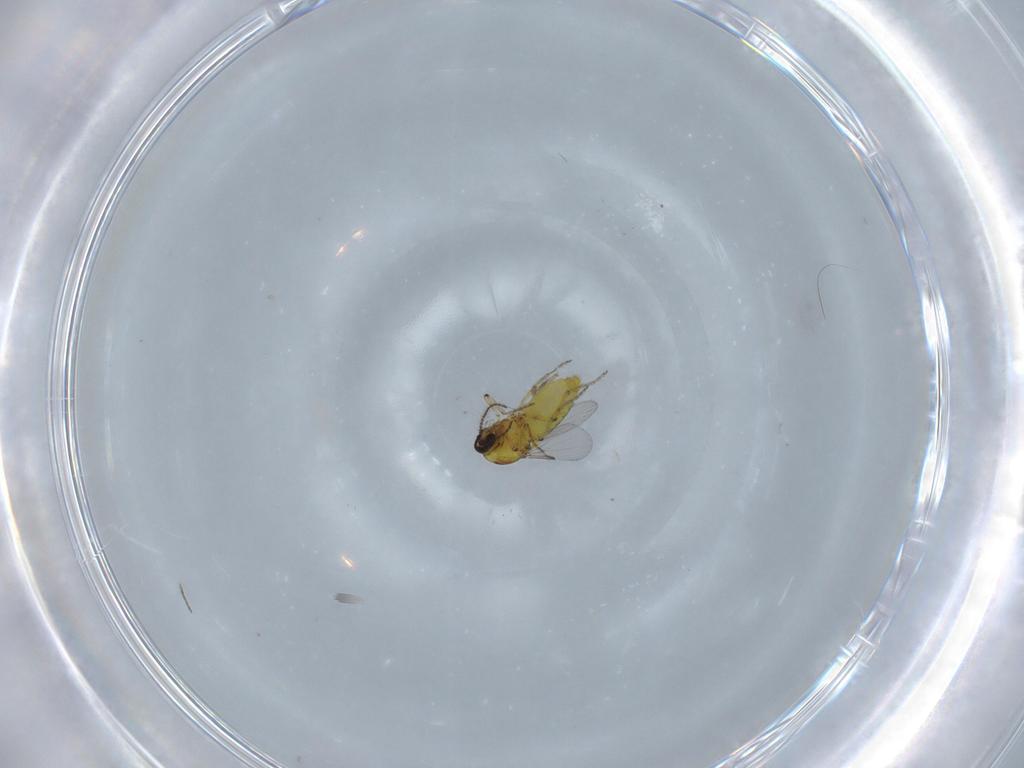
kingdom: Animalia
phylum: Arthropoda
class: Insecta
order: Diptera
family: Ceratopogonidae
